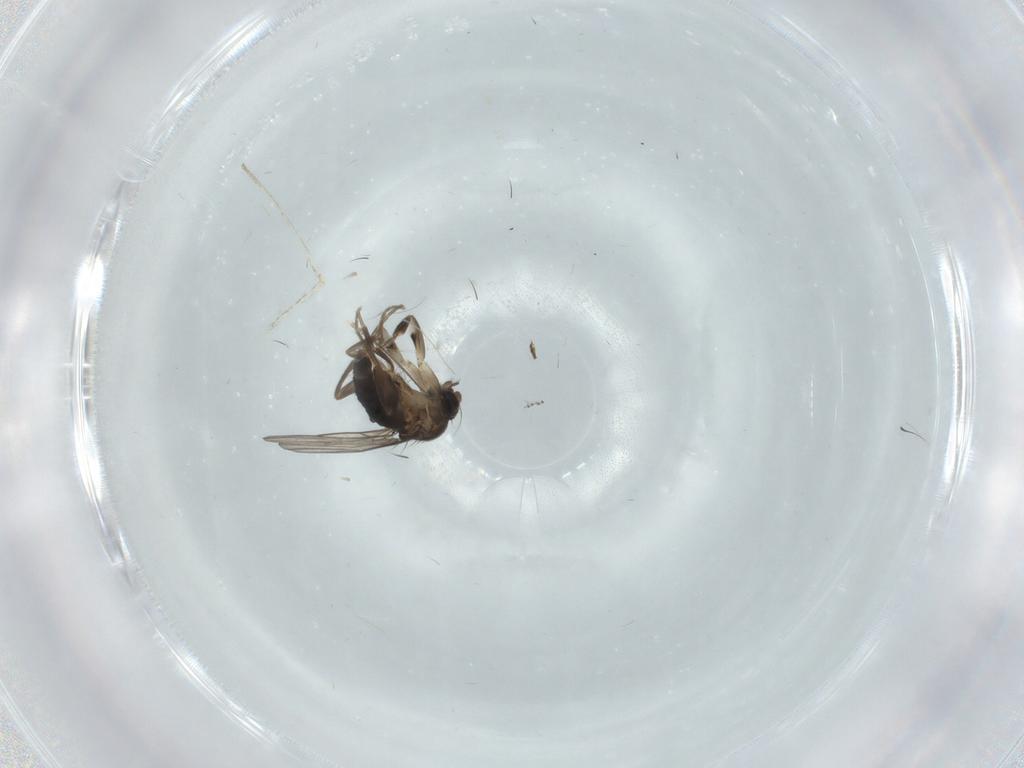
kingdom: Animalia
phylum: Arthropoda
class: Insecta
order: Diptera
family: Phoridae
